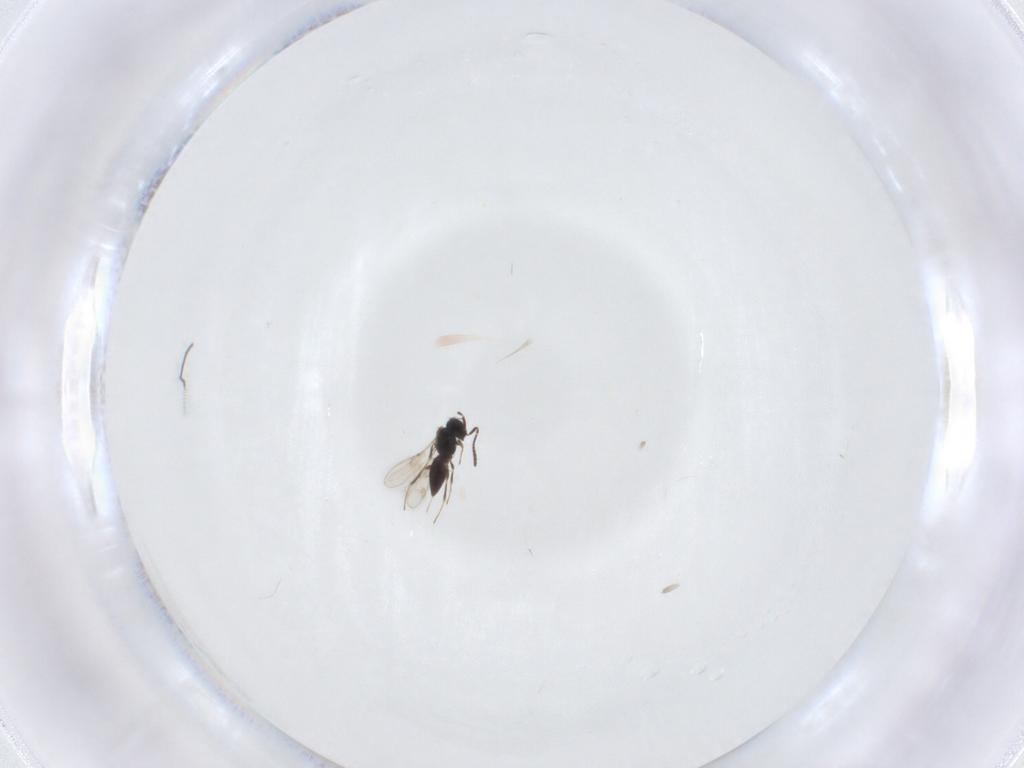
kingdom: Animalia
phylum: Arthropoda
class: Insecta
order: Hymenoptera
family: Scelionidae
